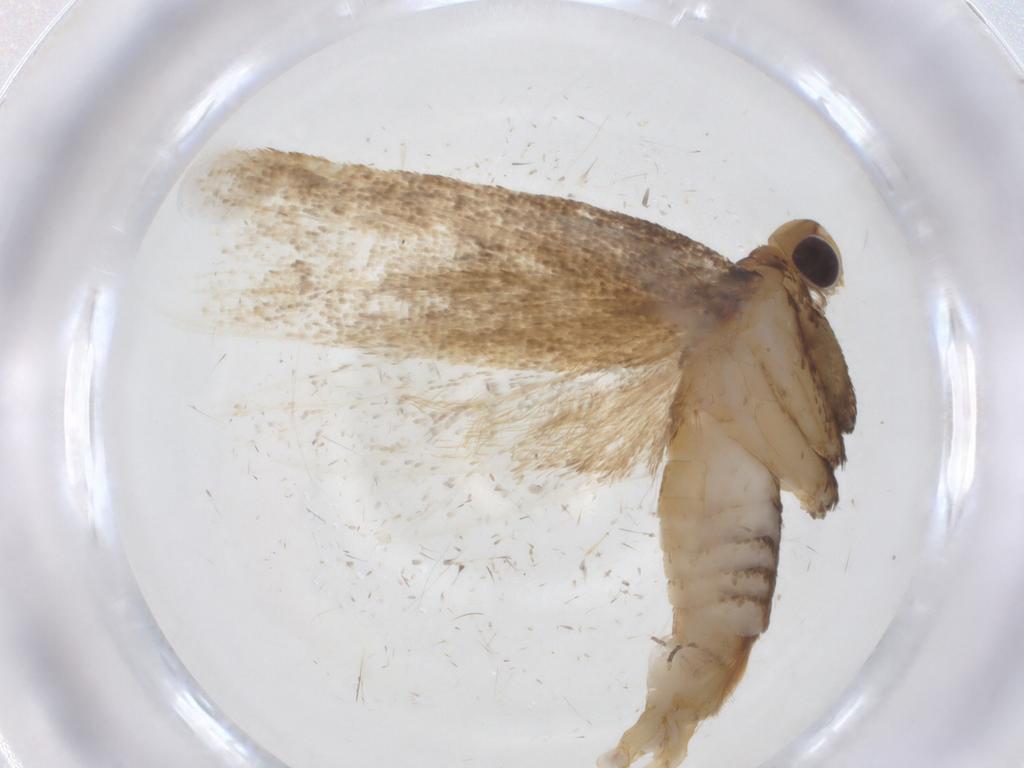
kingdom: Animalia
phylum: Arthropoda
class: Insecta
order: Lepidoptera
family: Lecithoceridae
